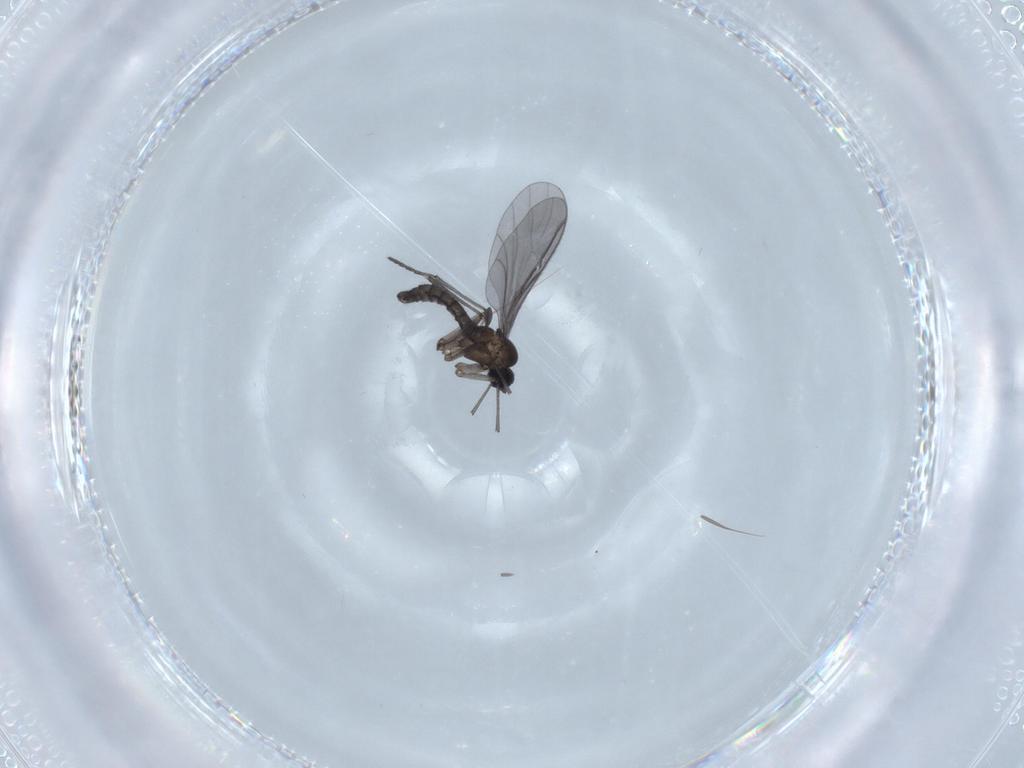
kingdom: Animalia
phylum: Arthropoda
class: Insecta
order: Diptera
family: Sciaridae
